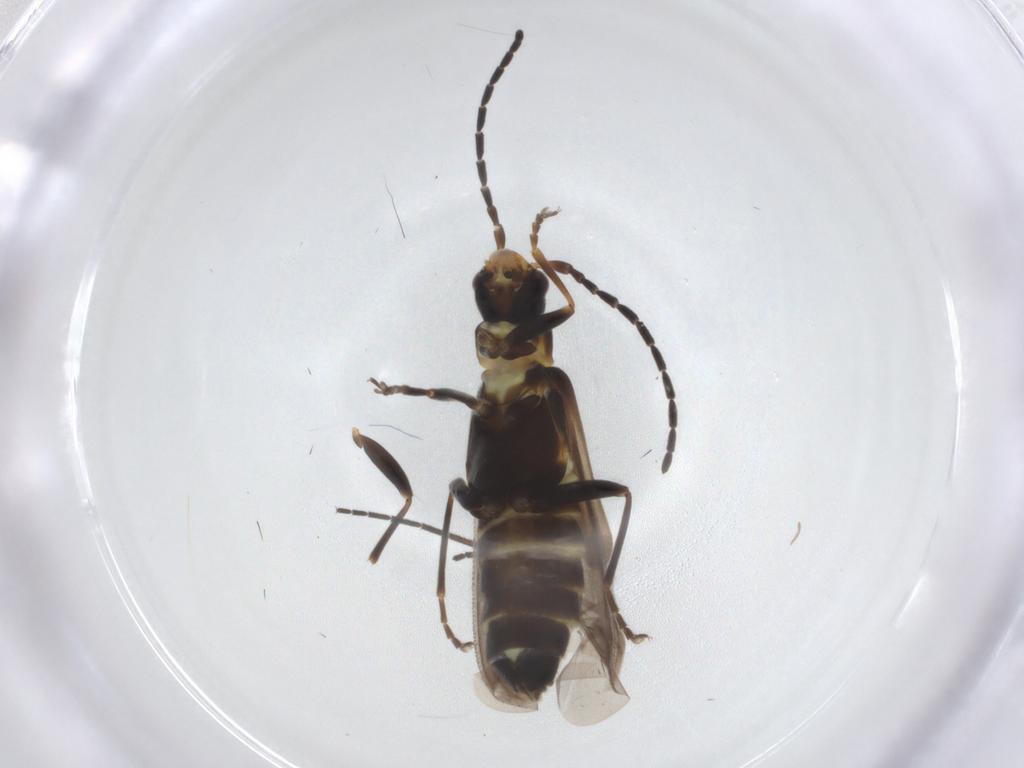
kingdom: Animalia
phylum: Arthropoda
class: Insecta
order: Coleoptera
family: Cantharidae
